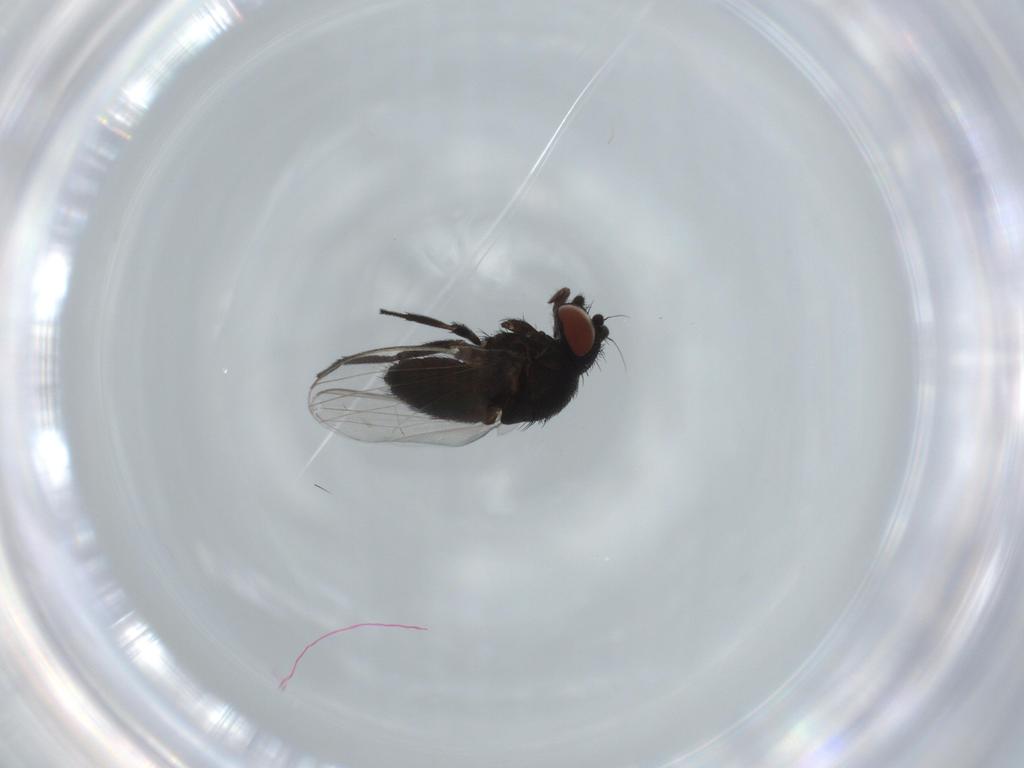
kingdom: Animalia
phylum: Arthropoda
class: Insecta
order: Diptera
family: Milichiidae
